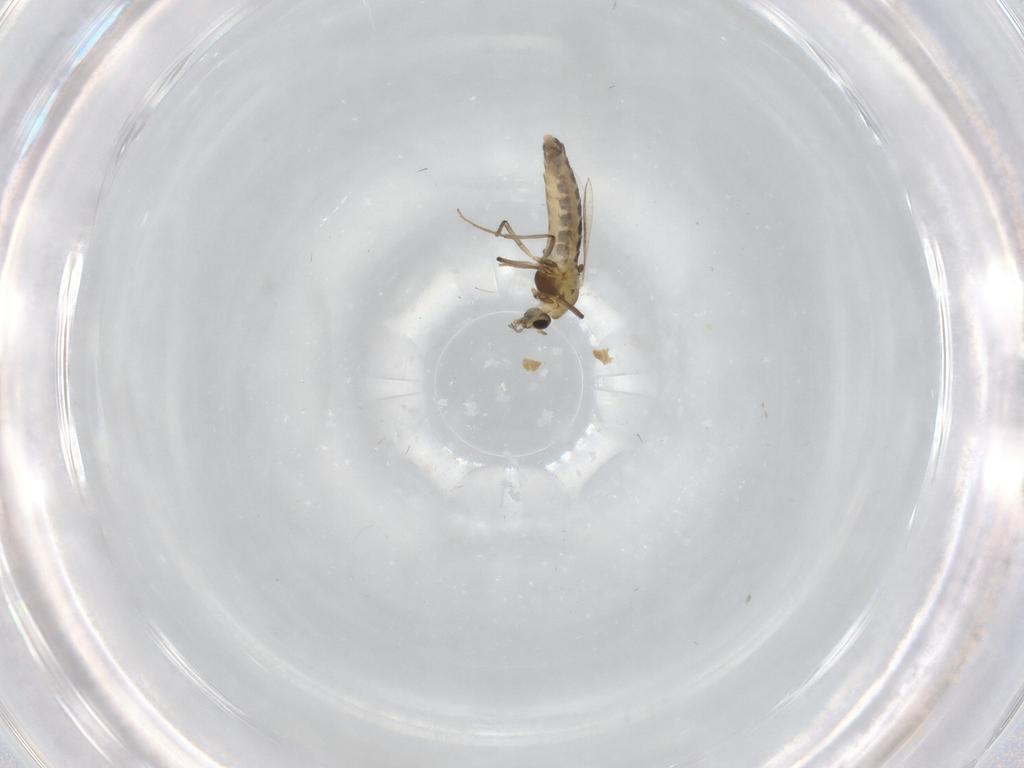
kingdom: Animalia
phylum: Arthropoda
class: Insecta
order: Diptera
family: Chironomidae
